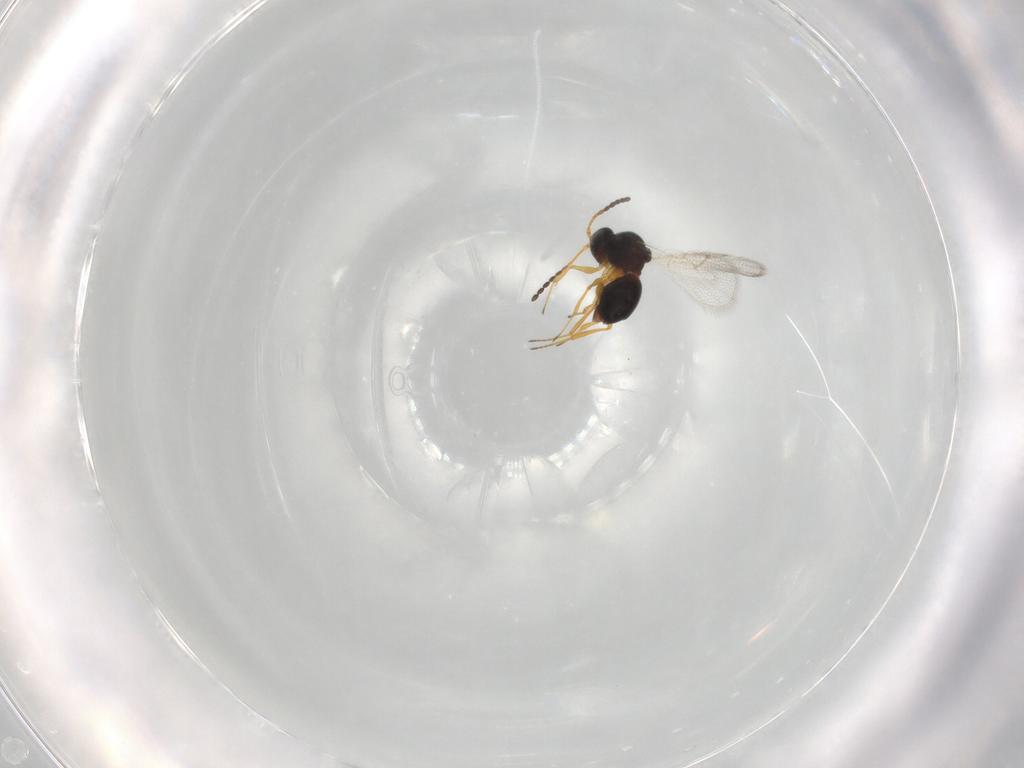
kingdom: Animalia
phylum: Arthropoda
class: Insecta
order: Hymenoptera
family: Figitidae
